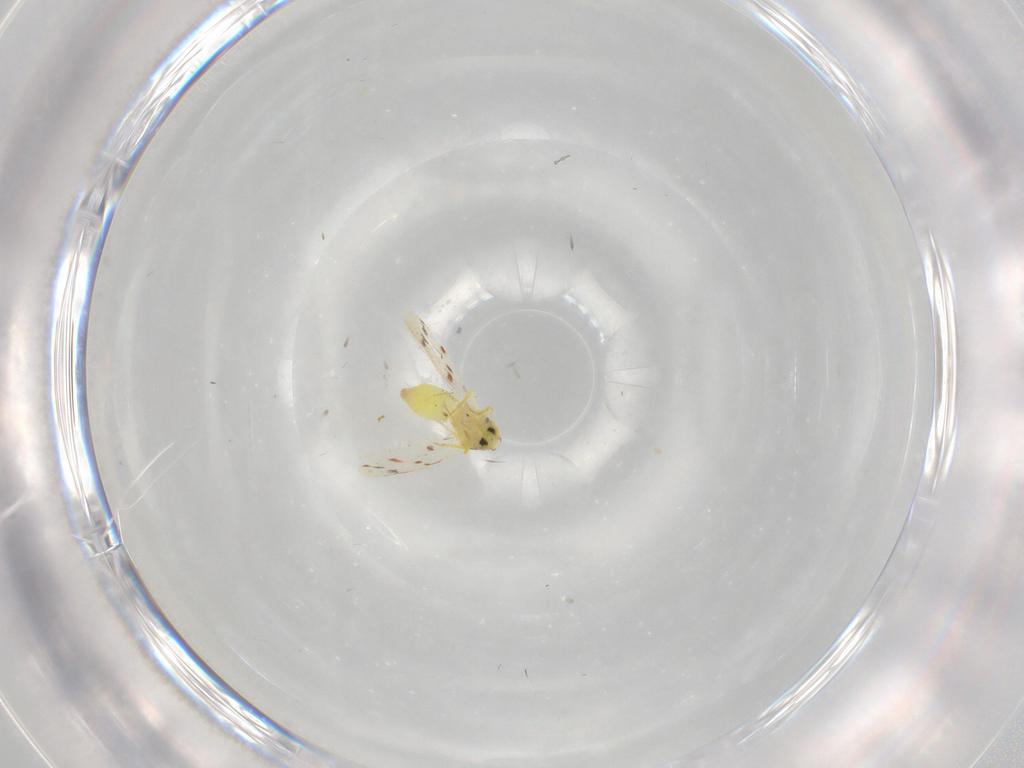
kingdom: Animalia
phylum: Arthropoda
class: Insecta
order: Hemiptera
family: Aleyrodidae
